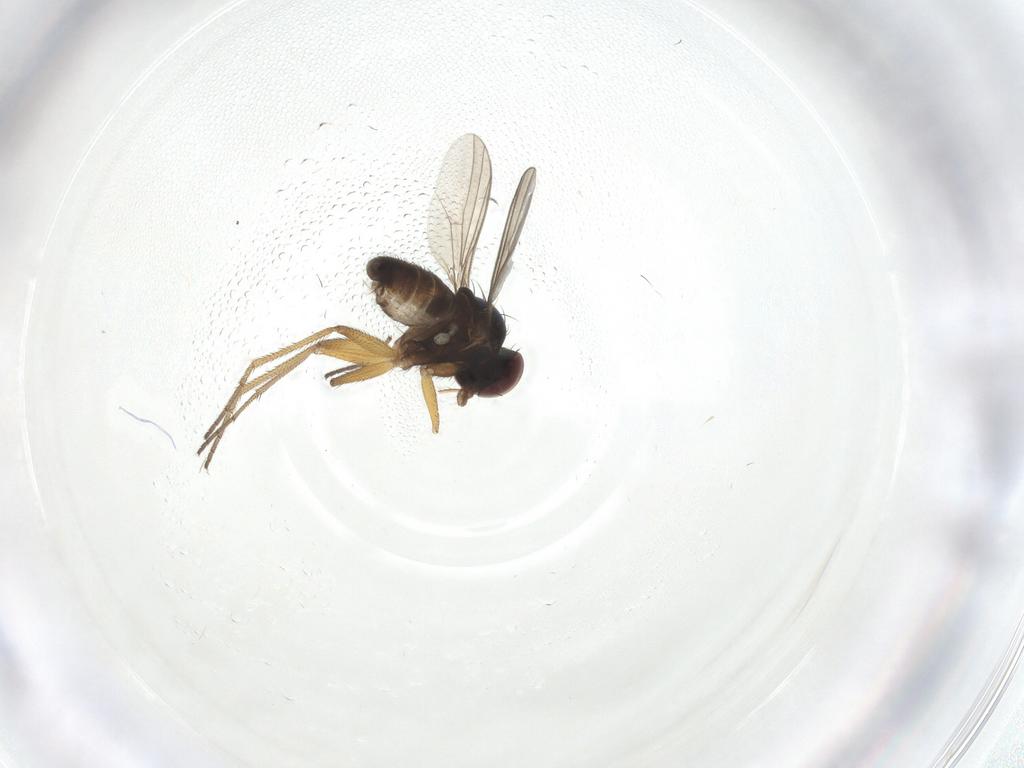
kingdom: Animalia
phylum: Arthropoda
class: Insecta
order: Diptera
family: Dolichopodidae
